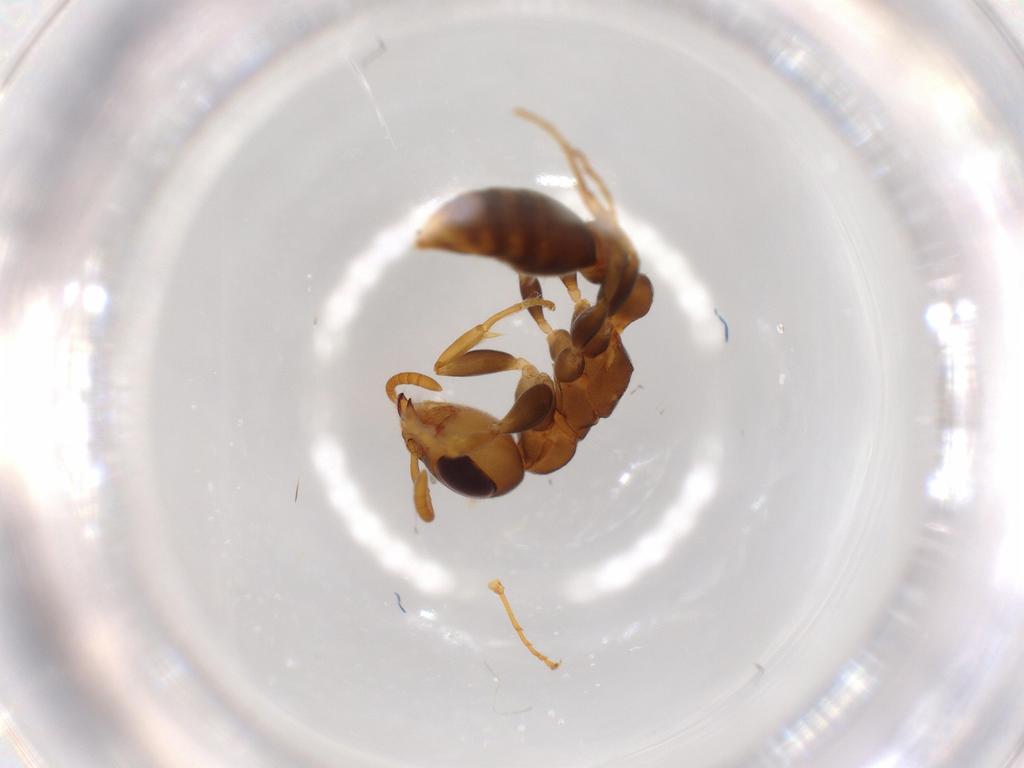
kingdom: Animalia
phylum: Arthropoda
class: Insecta
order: Hymenoptera
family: Formicidae
